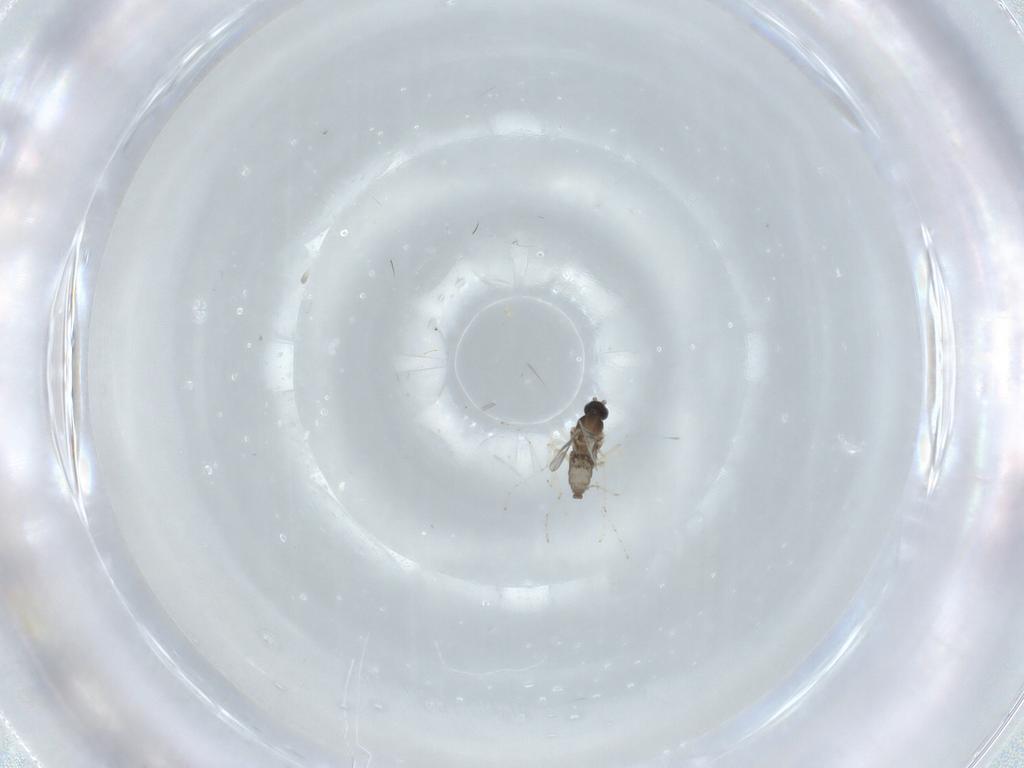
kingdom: Animalia
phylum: Arthropoda
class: Insecta
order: Diptera
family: Cecidomyiidae
